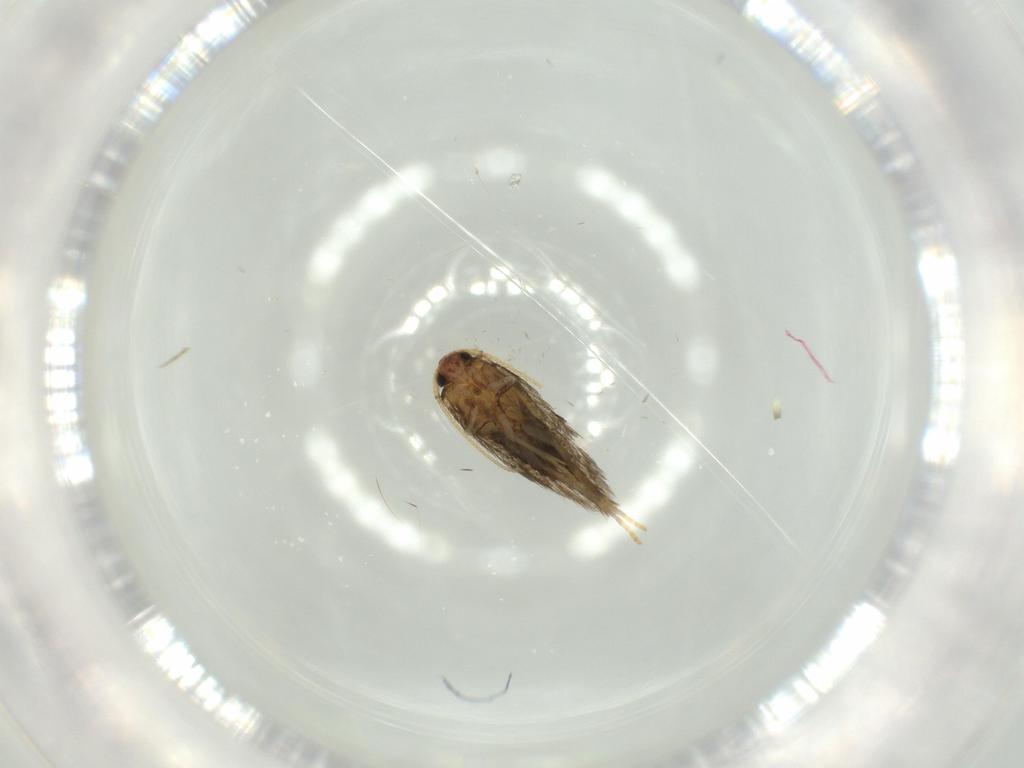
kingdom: Animalia
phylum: Arthropoda
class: Insecta
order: Lepidoptera
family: Nepticulidae
